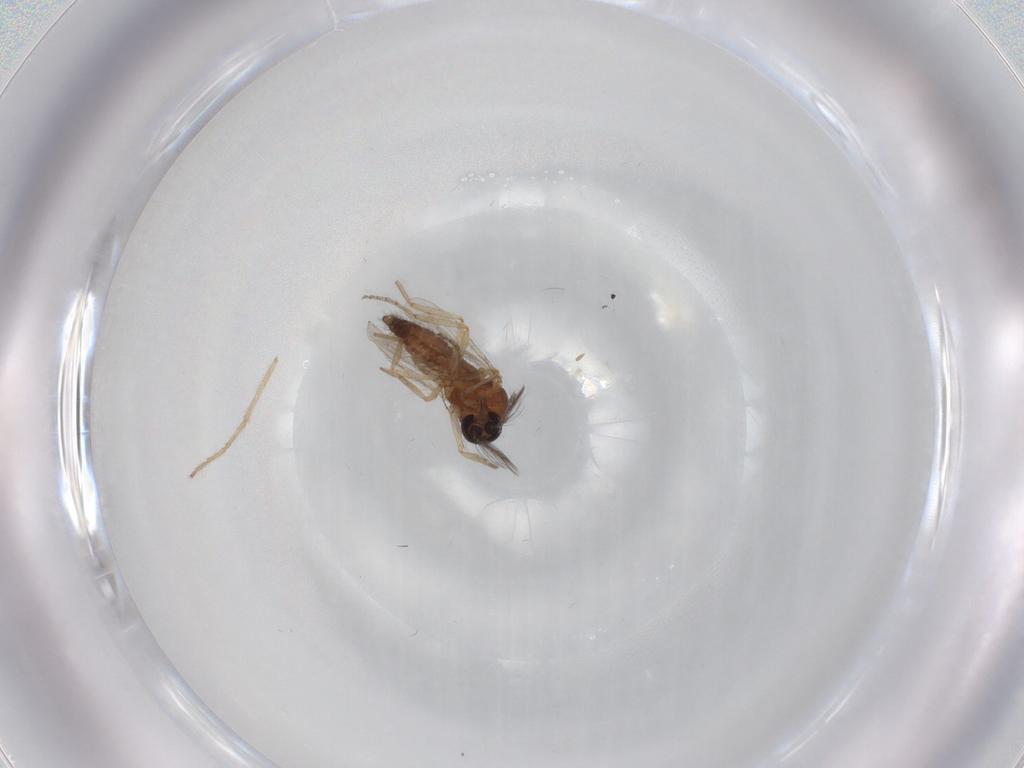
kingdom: Animalia
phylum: Arthropoda
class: Insecta
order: Diptera
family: Ceratopogonidae
